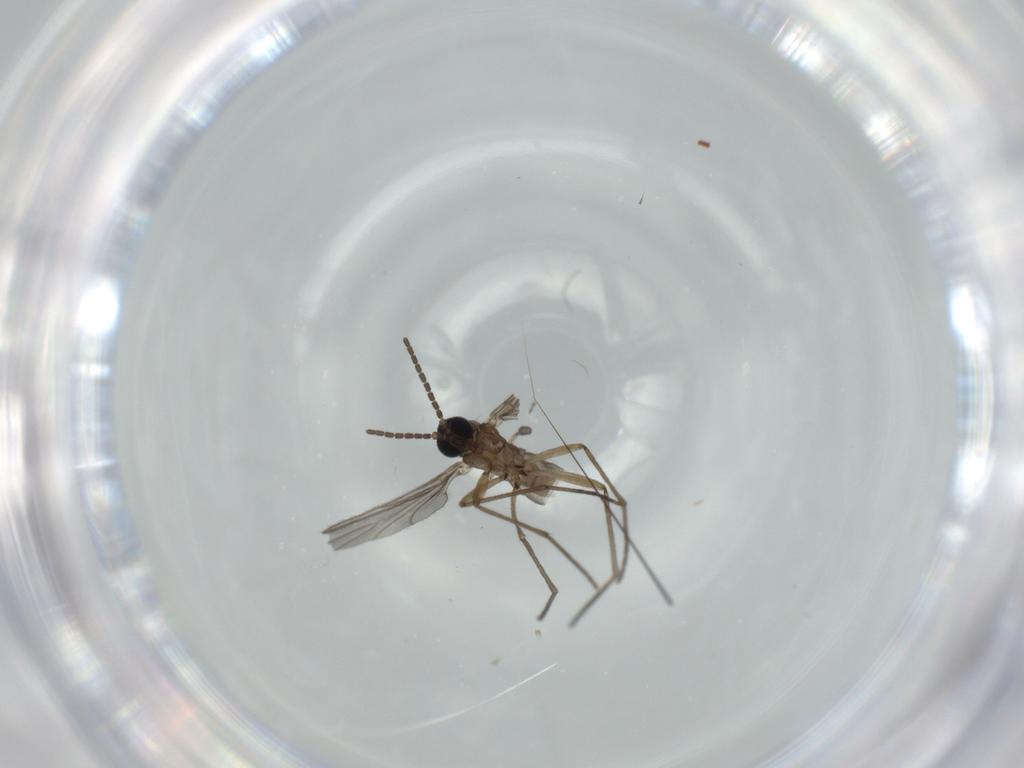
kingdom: Animalia
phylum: Arthropoda
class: Insecta
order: Diptera
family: Sciaridae
